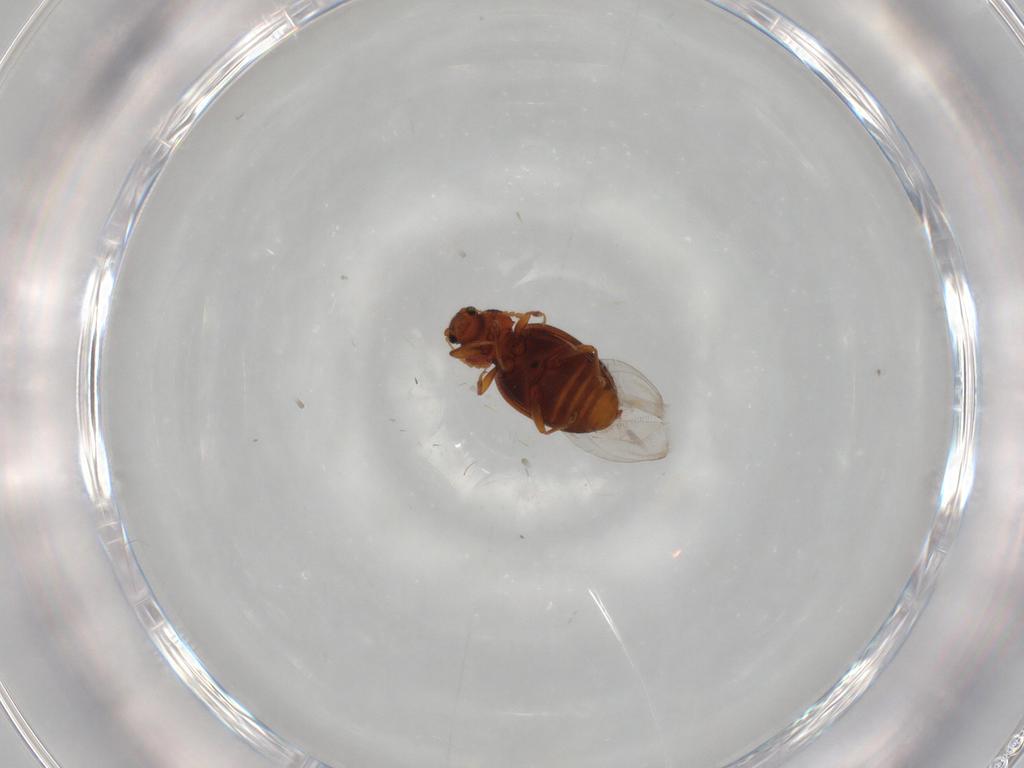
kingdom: Animalia
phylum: Arthropoda
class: Insecta
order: Coleoptera
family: Latridiidae
